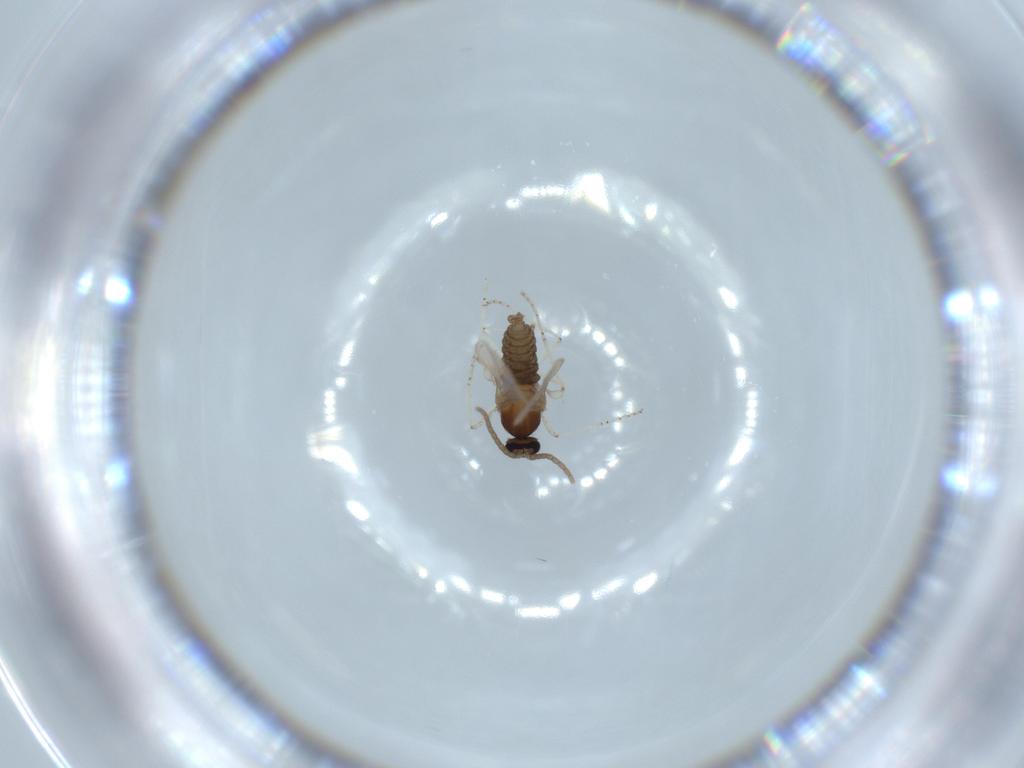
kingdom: Animalia
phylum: Arthropoda
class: Insecta
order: Diptera
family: Cecidomyiidae
